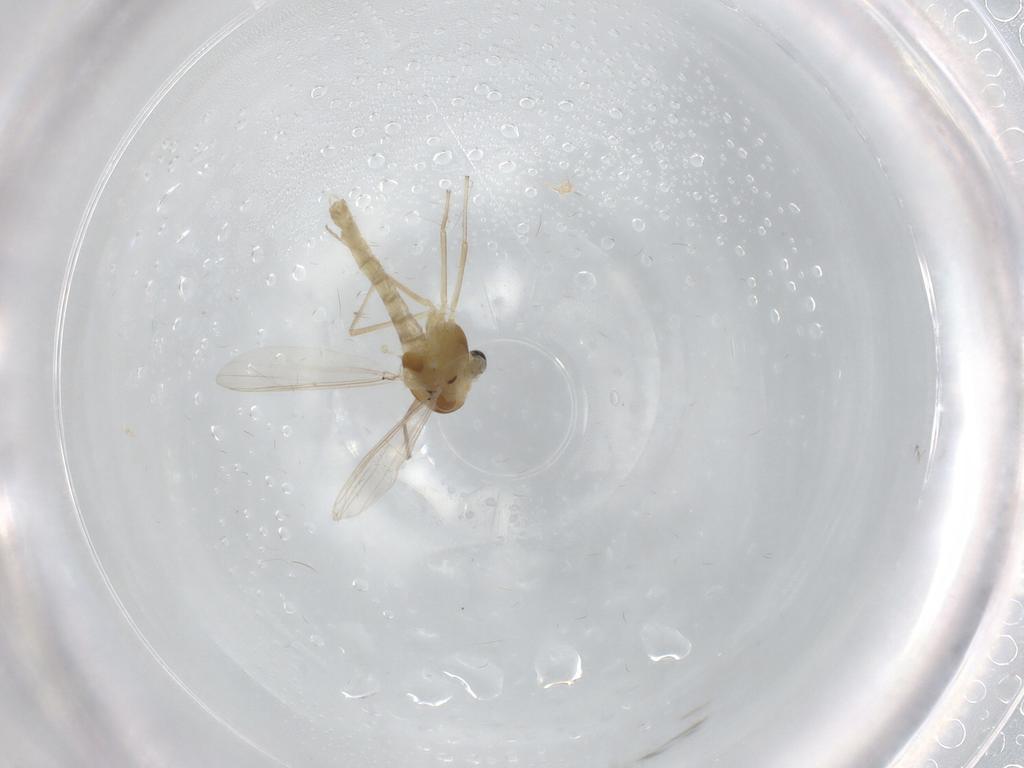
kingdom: Animalia
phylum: Arthropoda
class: Insecta
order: Diptera
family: Chironomidae
